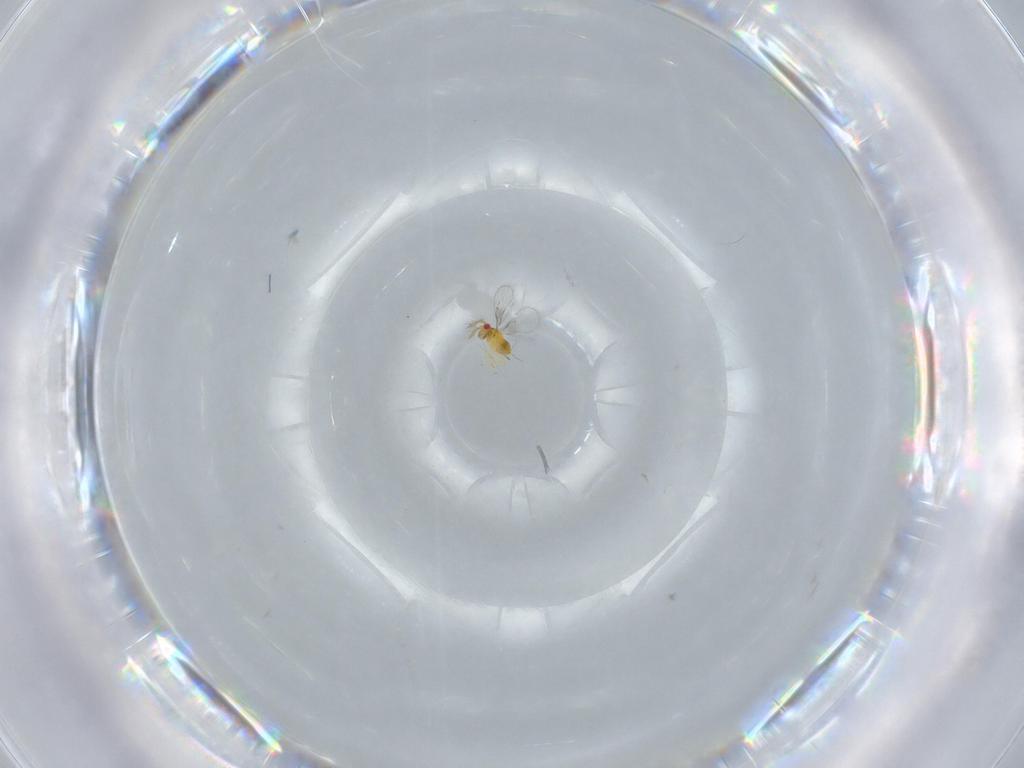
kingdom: Animalia
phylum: Arthropoda
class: Insecta
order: Hymenoptera
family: Trichogrammatidae
